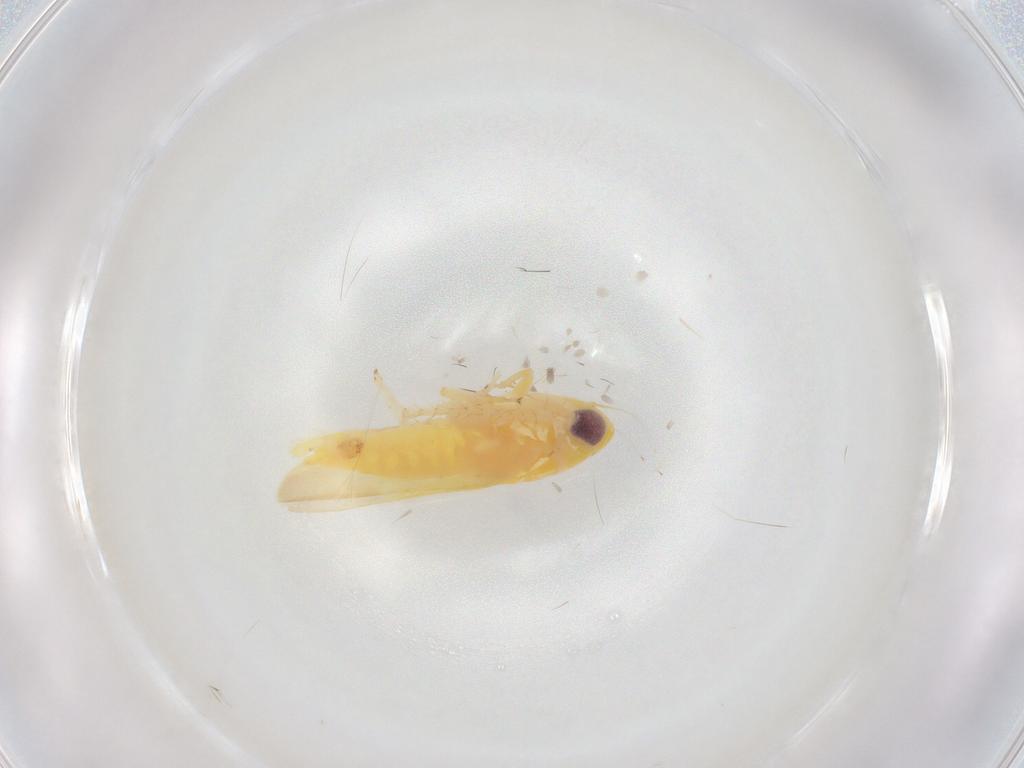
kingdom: Animalia
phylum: Arthropoda
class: Insecta
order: Hemiptera
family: Cicadellidae
